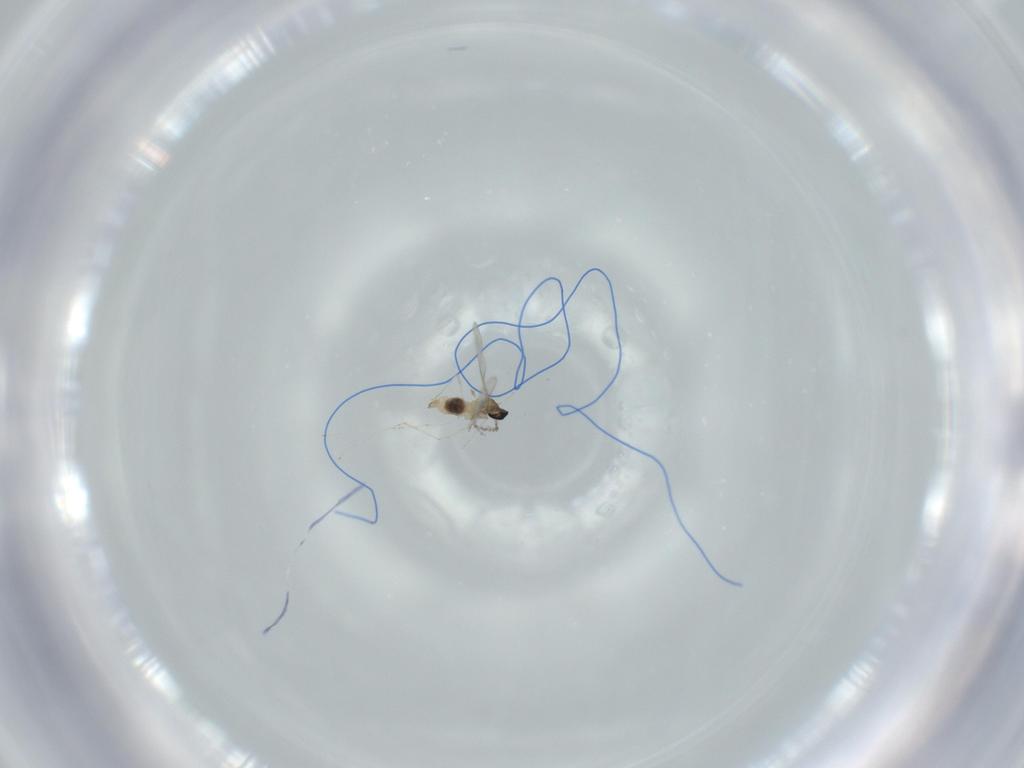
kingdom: Animalia
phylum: Arthropoda
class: Insecta
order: Diptera
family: Cecidomyiidae
